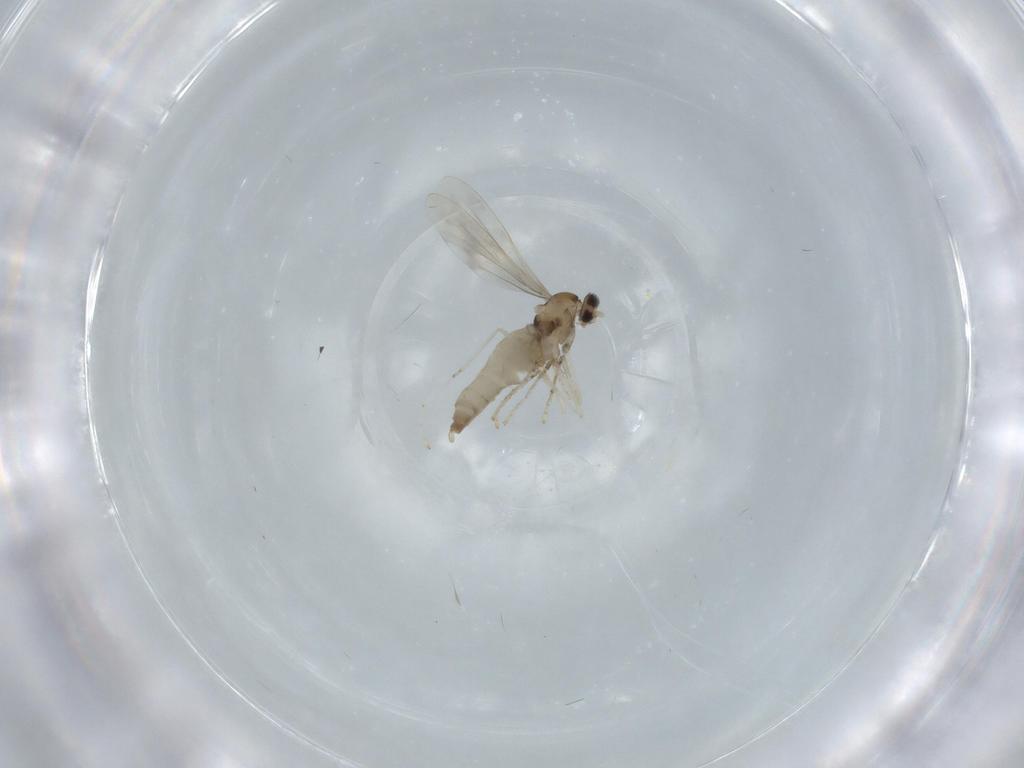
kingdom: Animalia
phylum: Arthropoda
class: Insecta
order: Diptera
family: Cecidomyiidae
